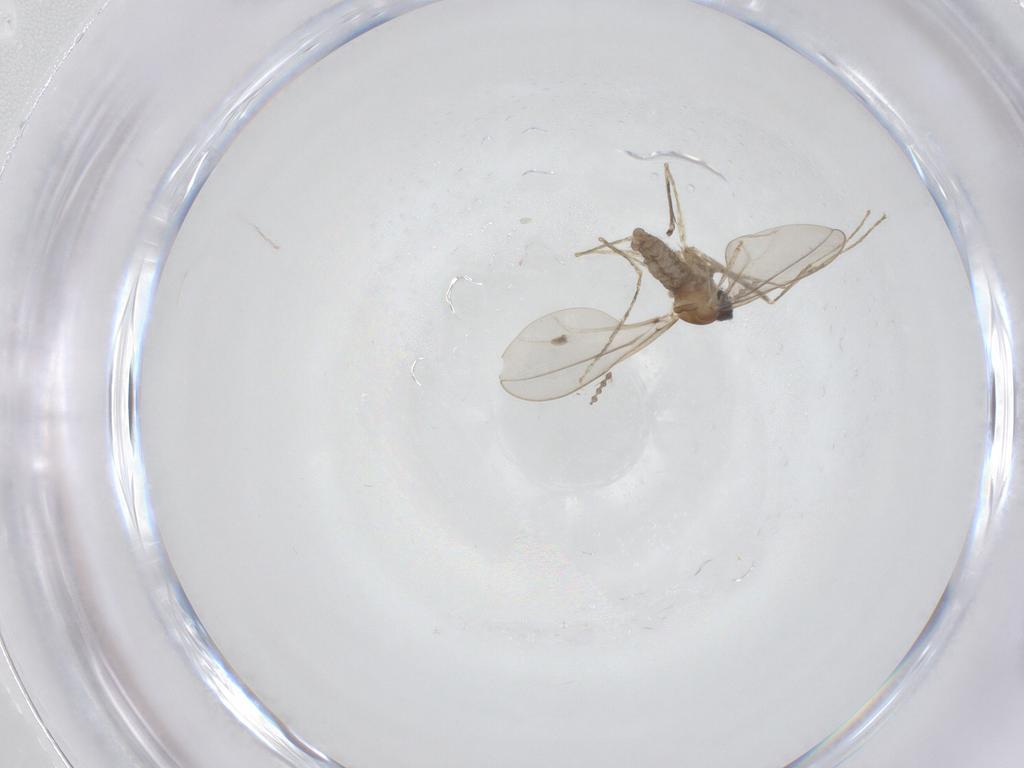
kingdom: Animalia
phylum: Arthropoda
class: Insecta
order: Diptera
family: Cecidomyiidae
